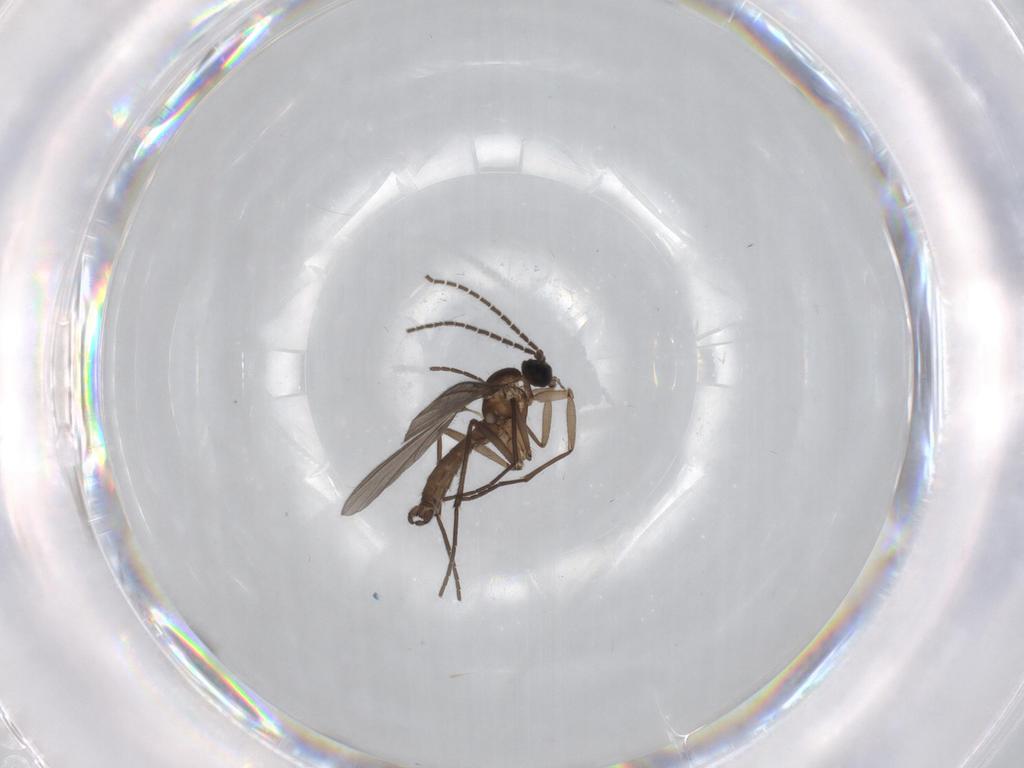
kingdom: Animalia
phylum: Arthropoda
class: Insecta
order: Diptera
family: Sciaridae
